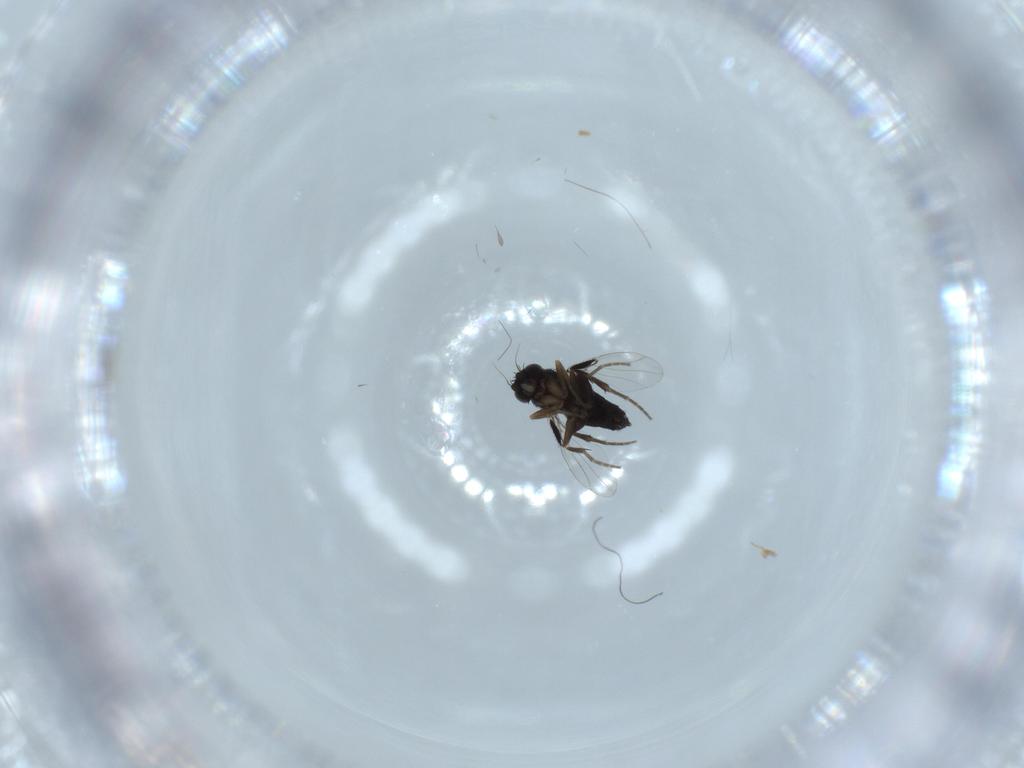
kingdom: Animalia
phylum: Arthropoda
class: Insecta
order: Diptera
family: Phoridae
